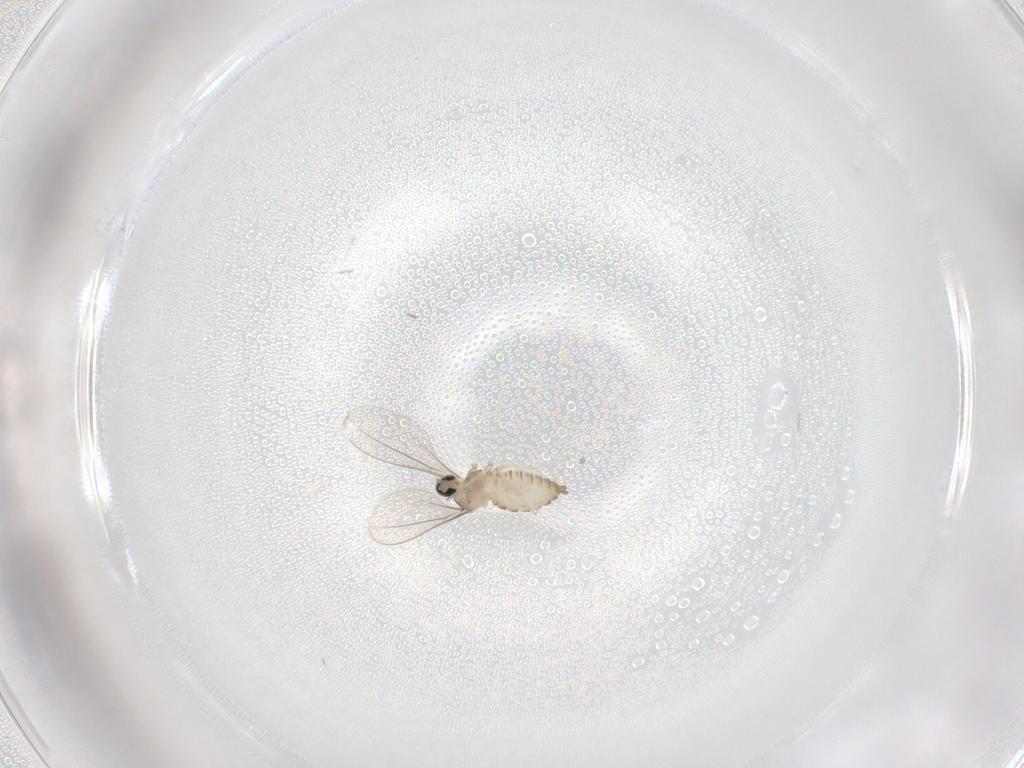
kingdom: Animalia
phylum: Arthropoda
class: Insecta
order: Diptera
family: Cecidomyiidae
